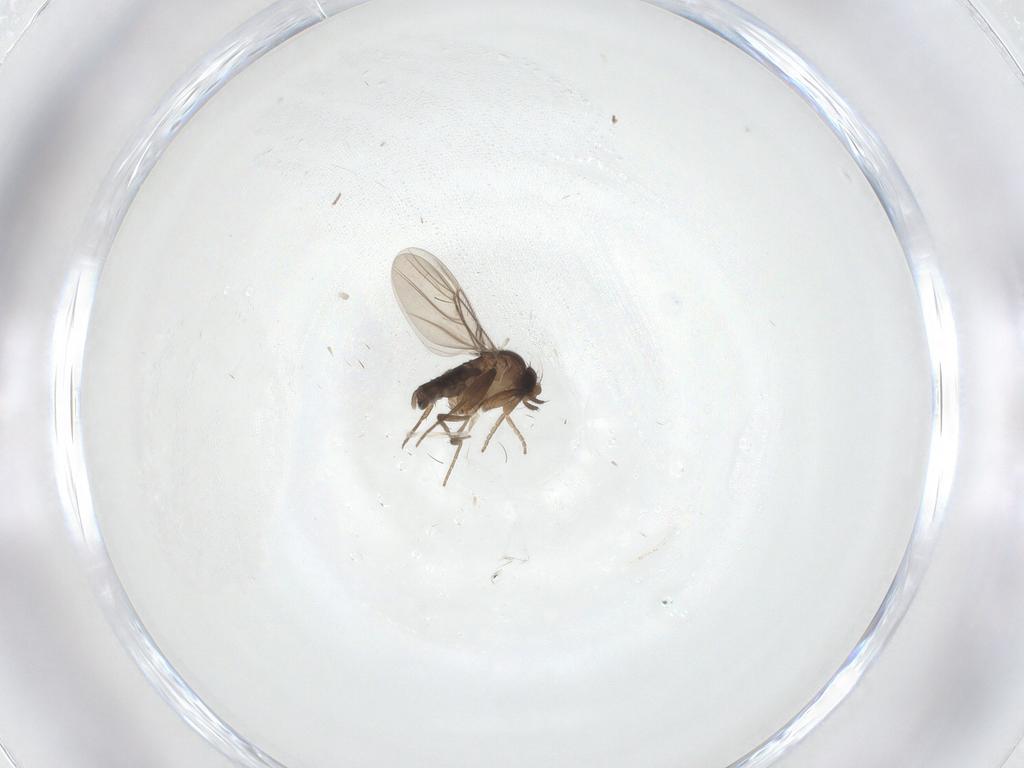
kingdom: Animalia
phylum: Arthropoda
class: Insecta
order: Diptera
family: Phoridae
